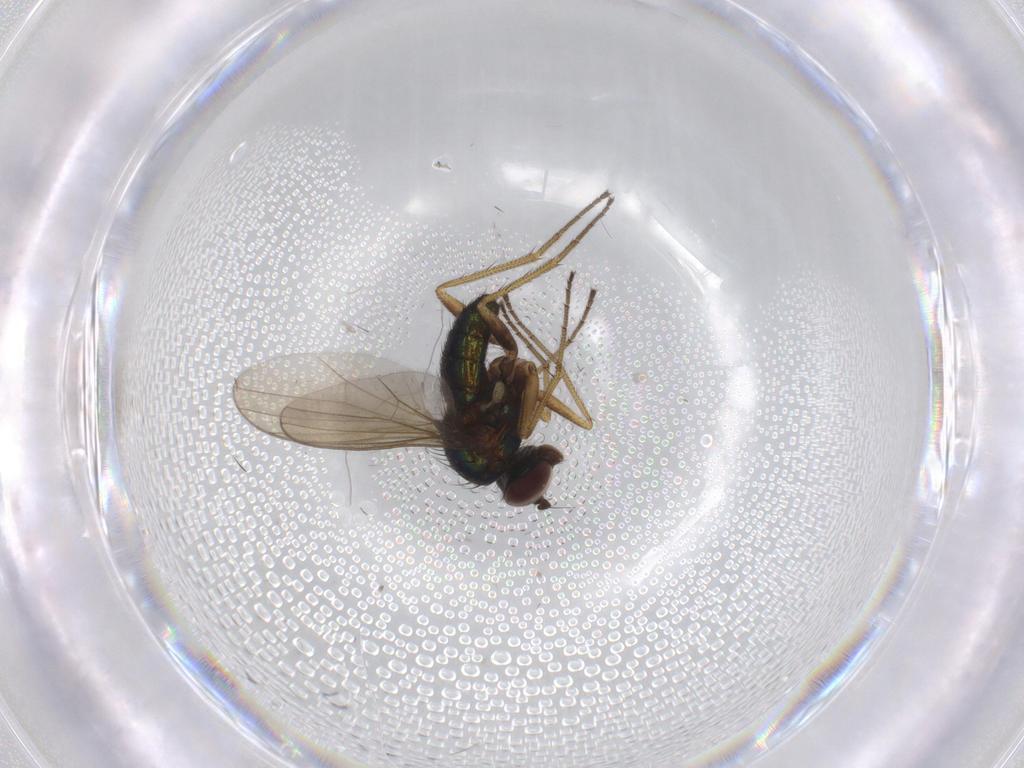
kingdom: Animalia
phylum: Arthropoda
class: Insecta
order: Diptera
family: Dolichopodidae
